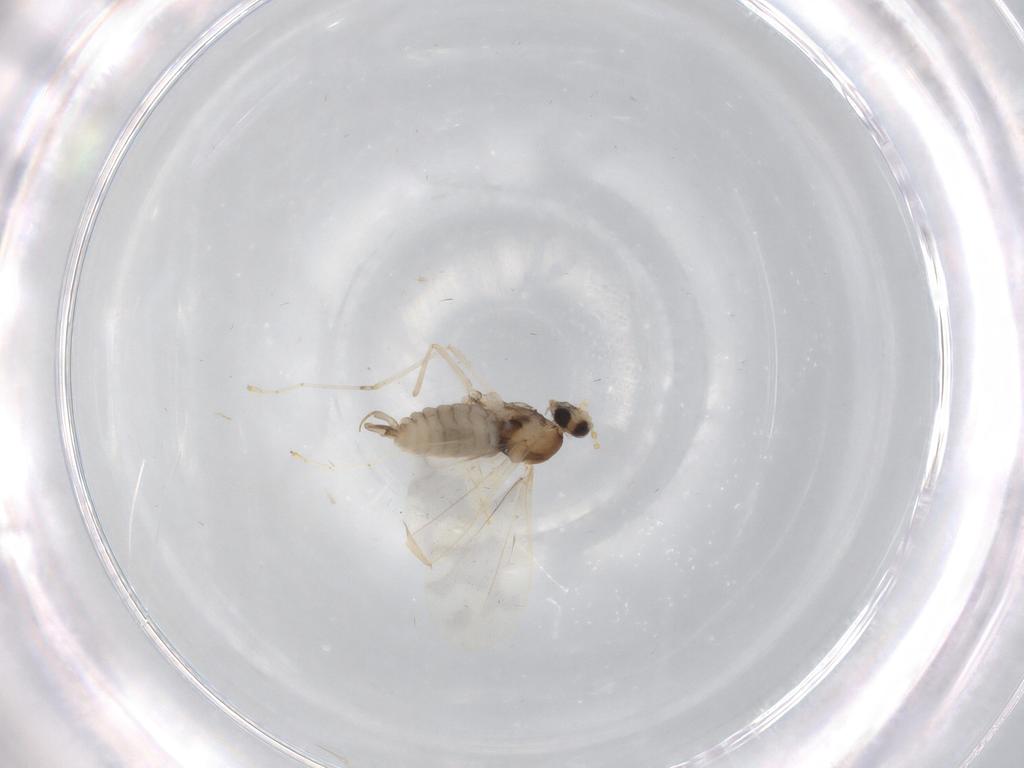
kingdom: Animalia
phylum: Arthropoda
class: Insecta
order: Diptera
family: Cecidomyiidae
